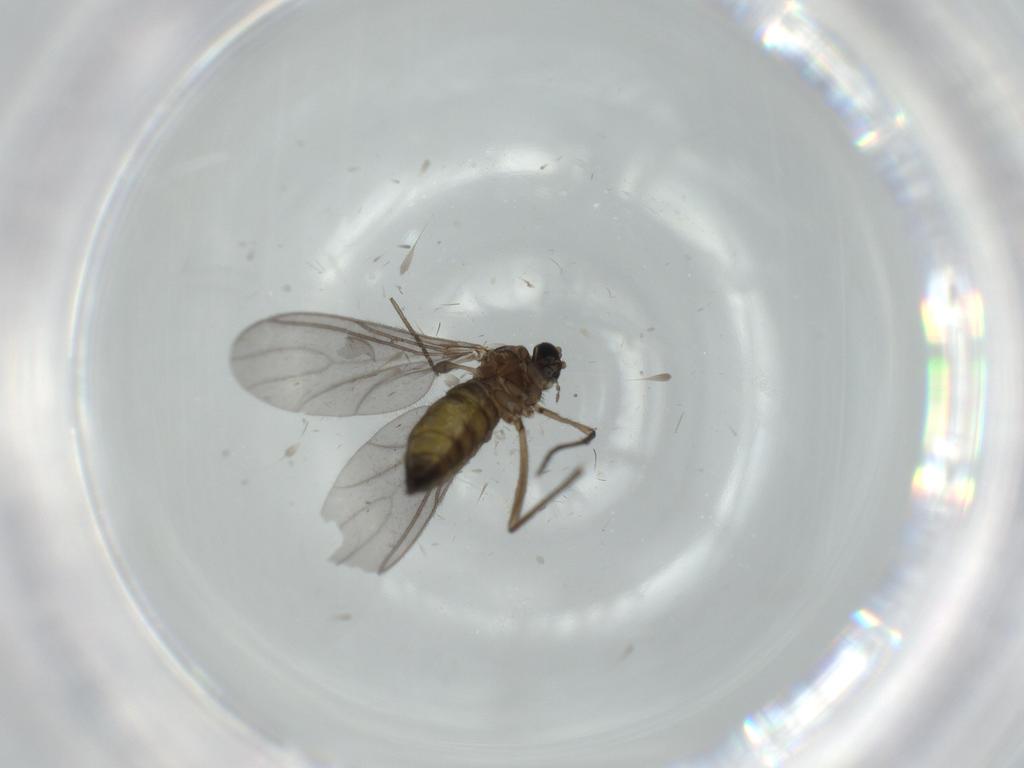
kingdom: Animalia
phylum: Arthropoda
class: Insecta
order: Diptera
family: Sciaridae
